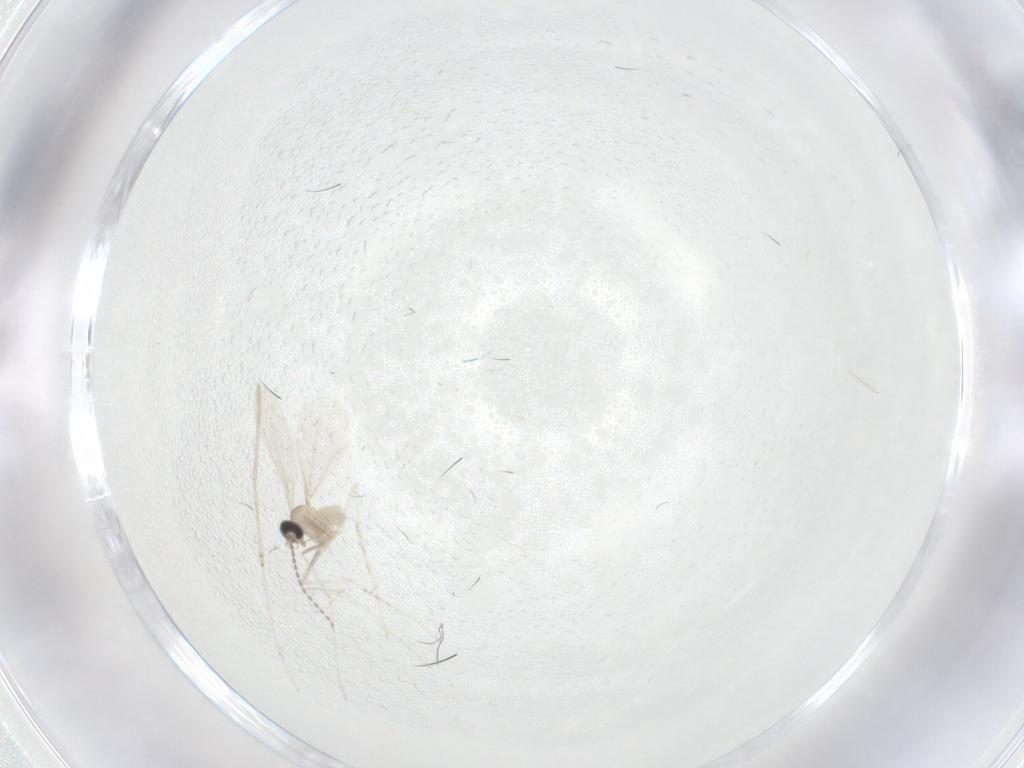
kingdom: Animalia
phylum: Arthropoda
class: Insecta
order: Diptera
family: Cecidomyiidae
